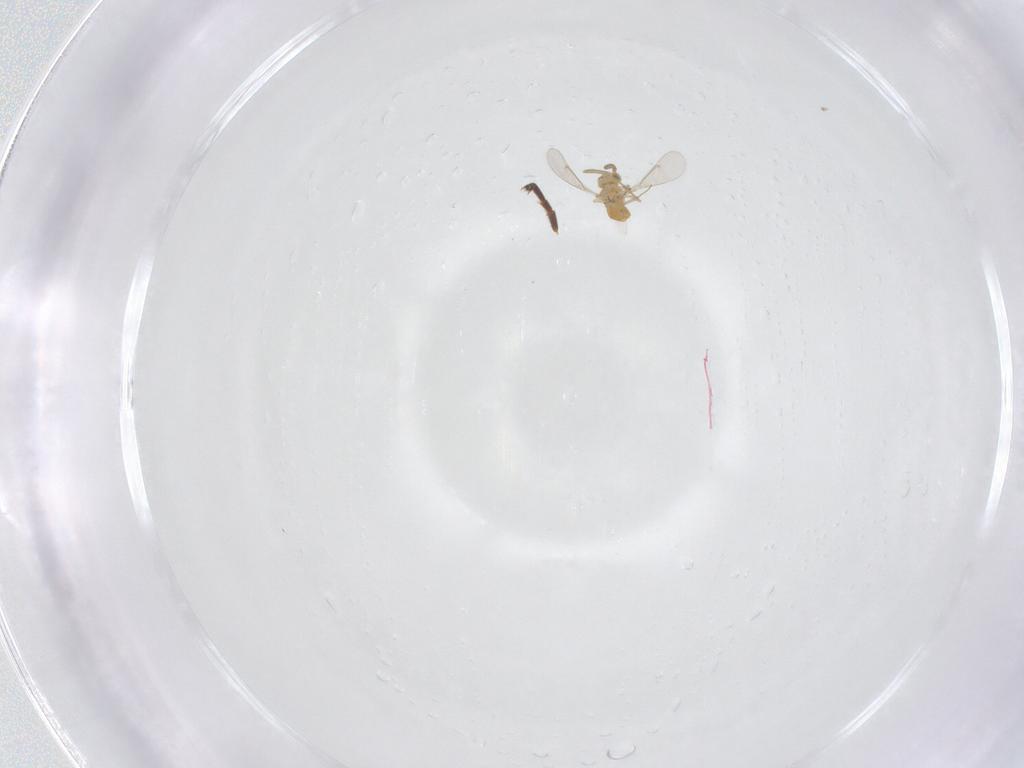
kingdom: Animalia
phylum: Arthropoda
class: Insecta
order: Hymenoptera
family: Ichneumonidae
